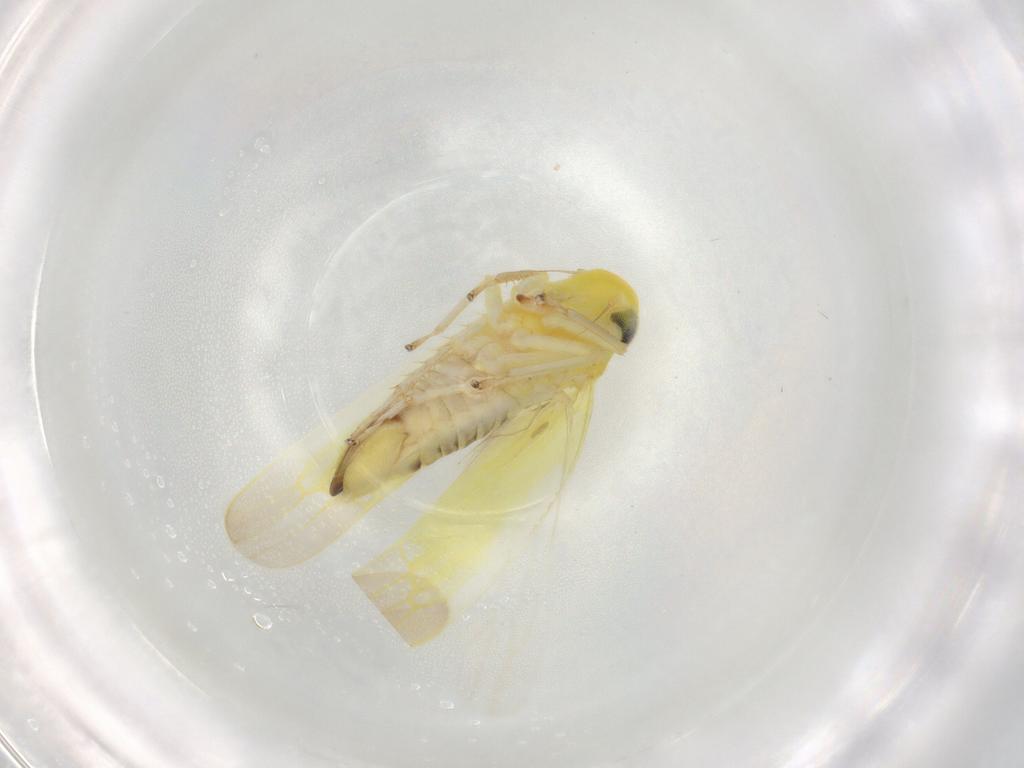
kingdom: Animalia
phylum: Arthropoda
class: Insecta
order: Hemiptera
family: Cicadellidae
